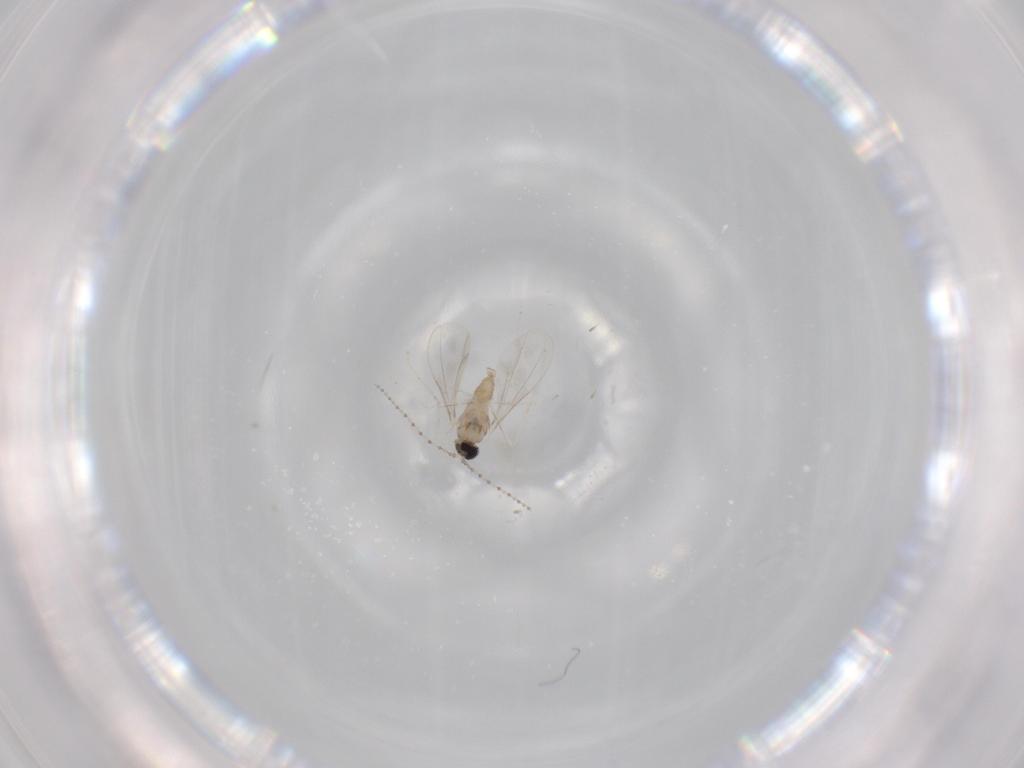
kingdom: Animalia
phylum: Arthropoda
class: Insecta
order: Diptera
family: Cecidomyiidae
